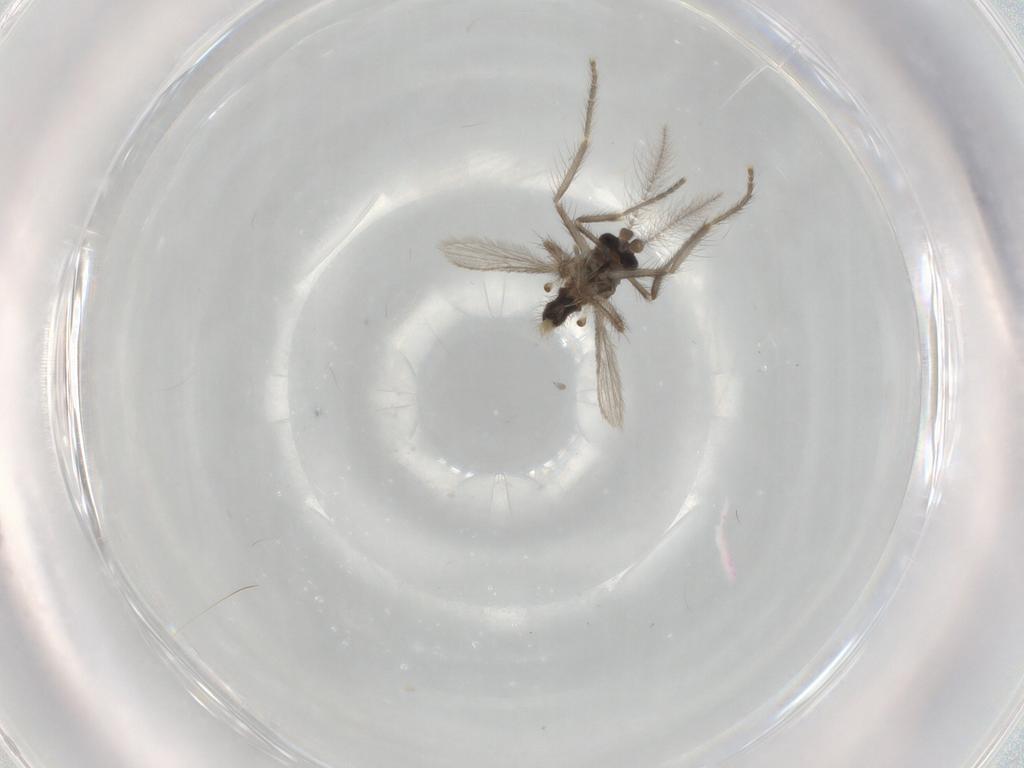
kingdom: Animalia
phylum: Arthropoda
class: Insecta
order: Diptera
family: Corethrellidae
